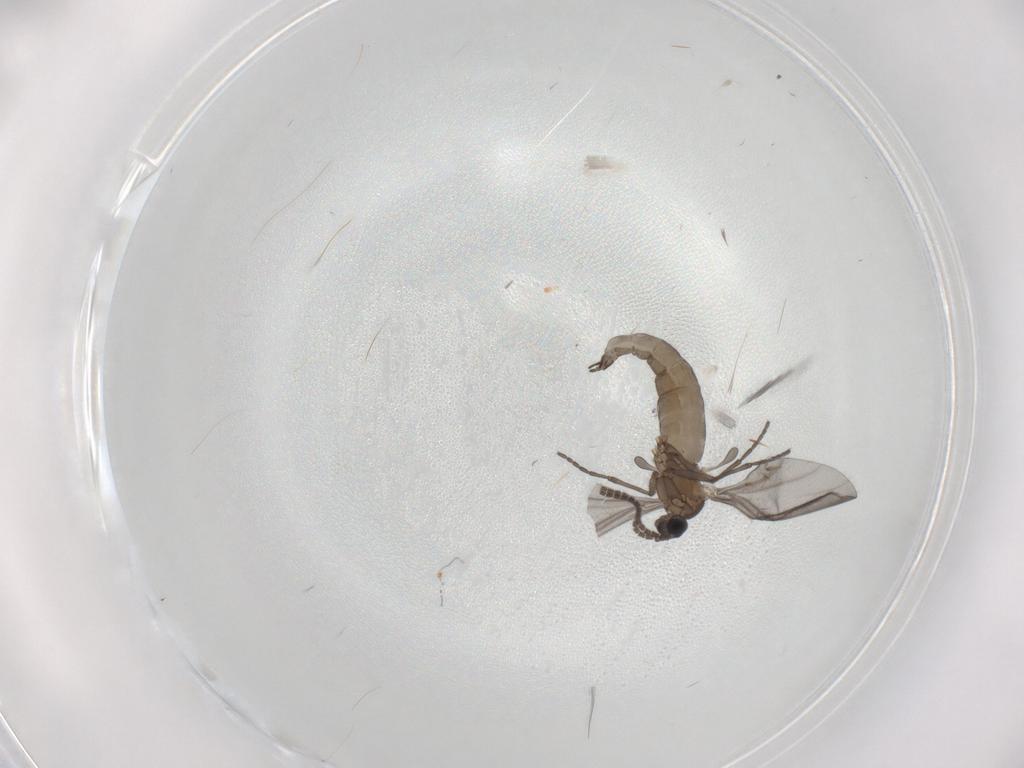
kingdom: Animalia
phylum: Arthropoda
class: Insecta
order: Diptera
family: Sciaridae
